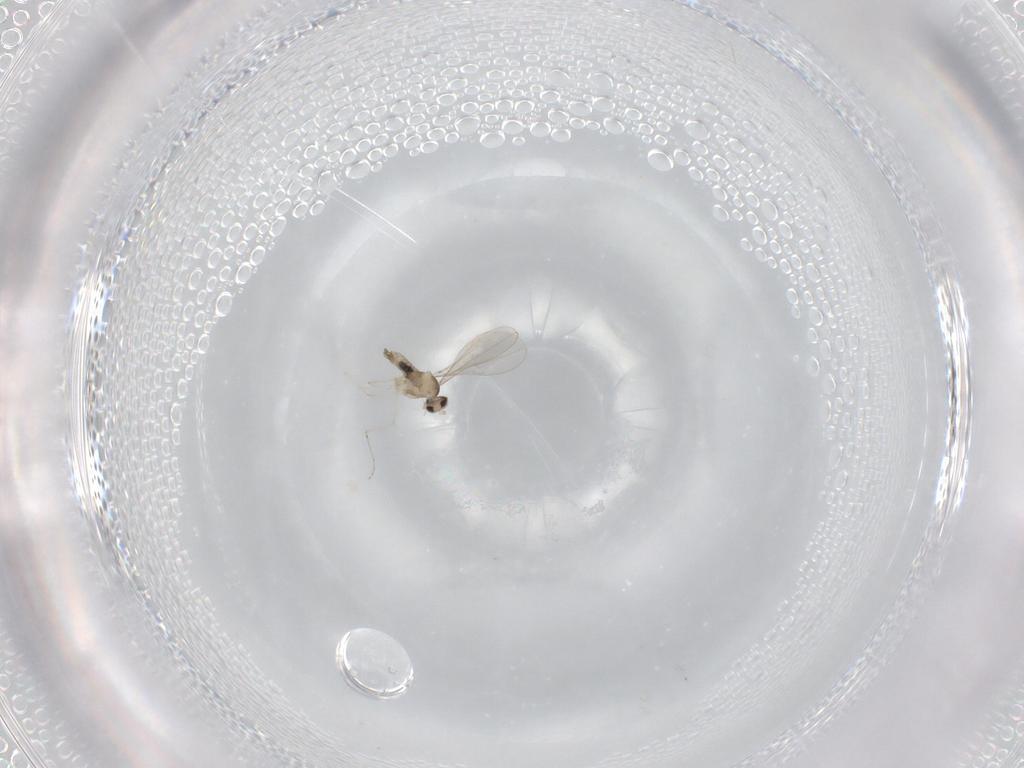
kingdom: Animalia
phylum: Arthropoda
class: Insecta
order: Diptera
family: Cecidomyiidae
